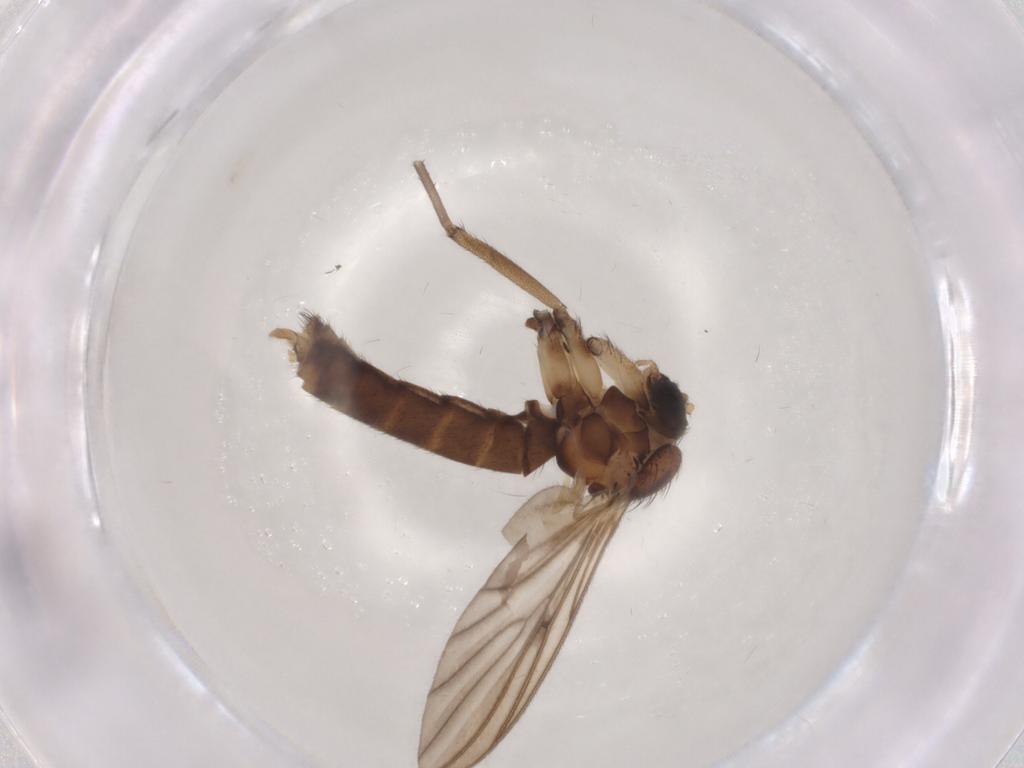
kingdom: Animalia
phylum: Arthropoda
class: Insecta
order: Diptera
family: Mycetophilidae
